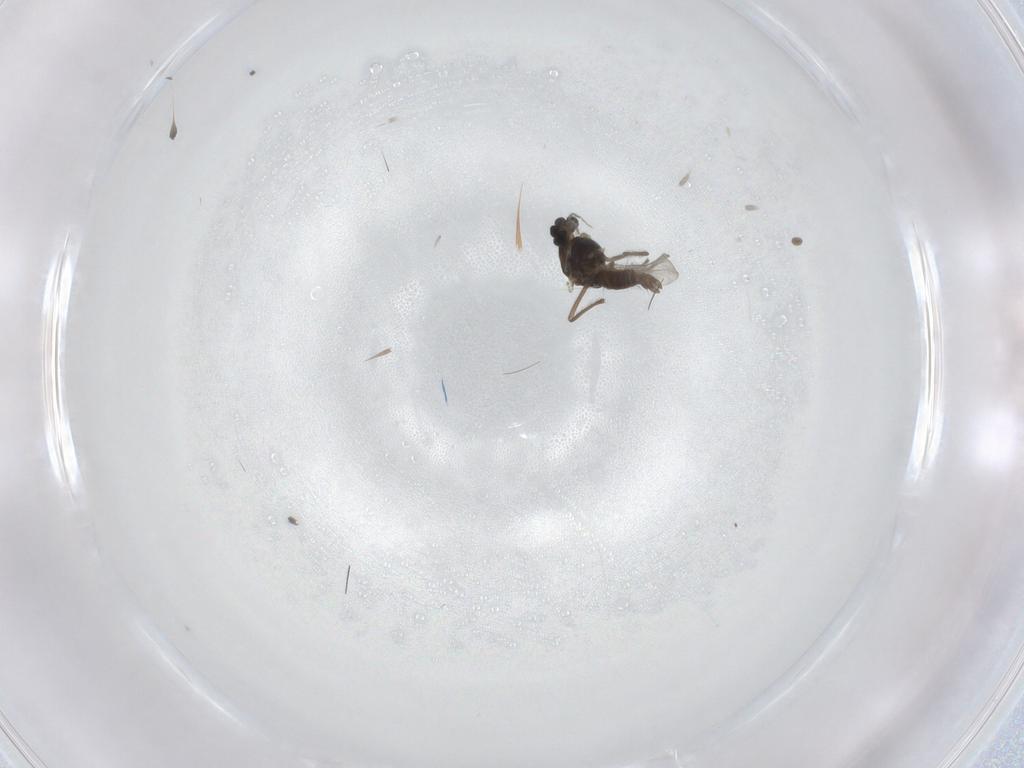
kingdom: Animalia
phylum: Arthropoda
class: Insecta
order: Diptera
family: Chironomidae
